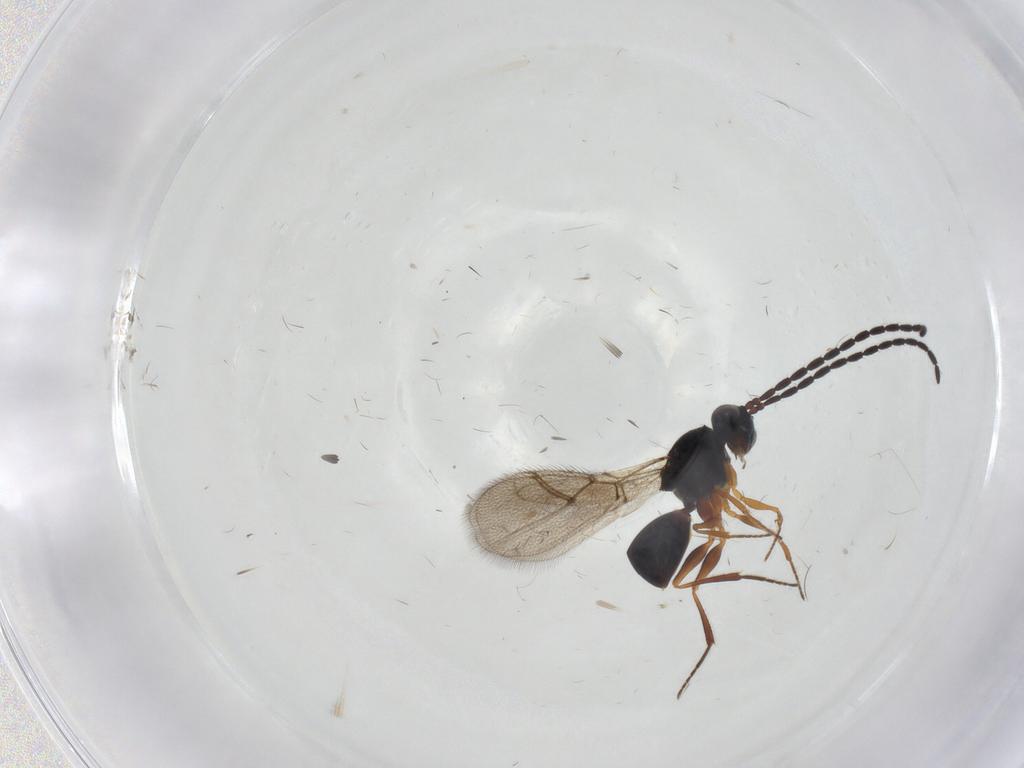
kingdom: Animalia
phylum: Arthropoda
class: Insecta
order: Hymenoptera
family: Figitidae
